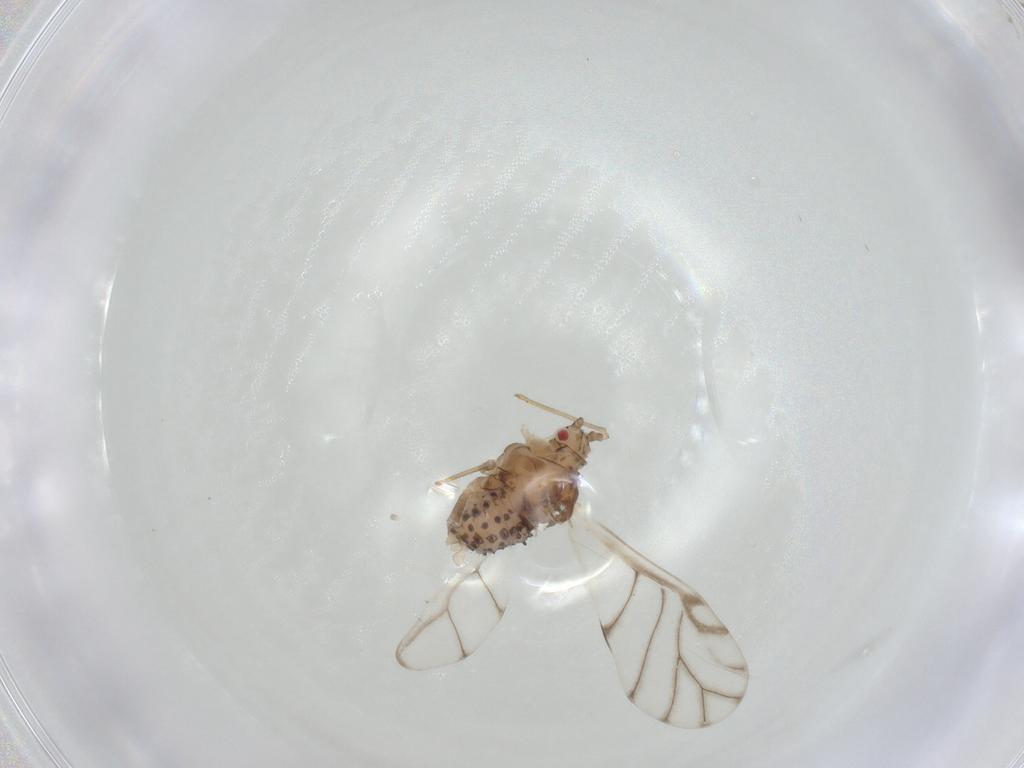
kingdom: Animalia
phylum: Arthropoda
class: Insecta
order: Hemiptera
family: Aphididae
